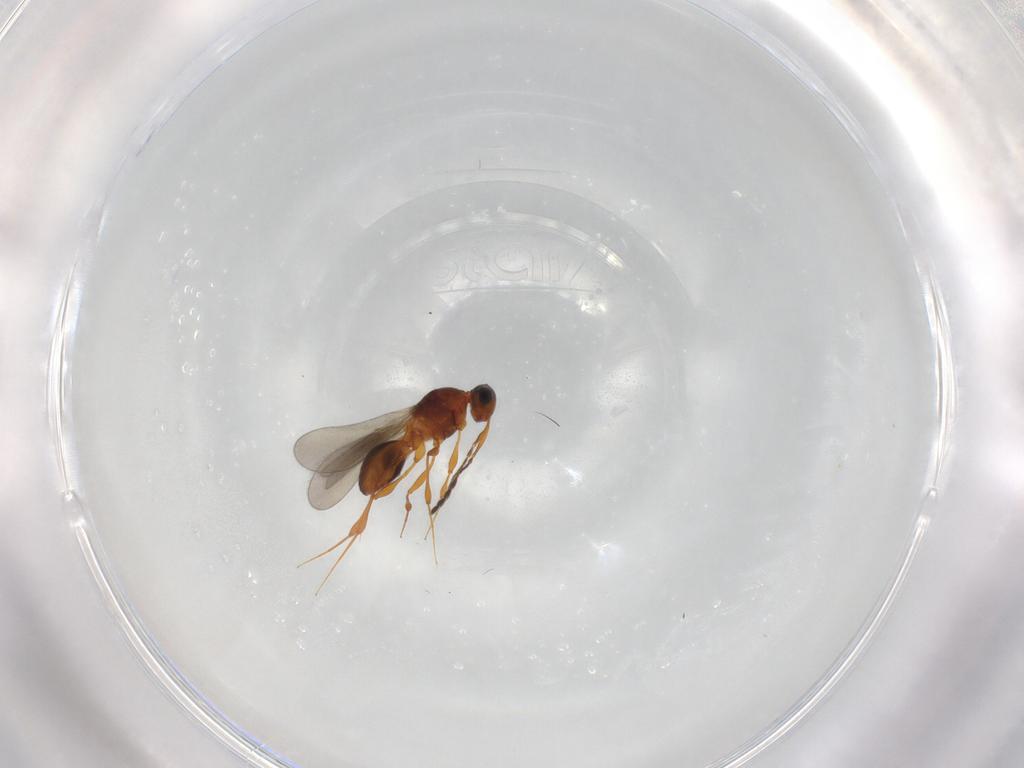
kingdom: Animalia
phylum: Arthropoda
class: Insecta
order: Hymenoptera
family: Platygastridae
